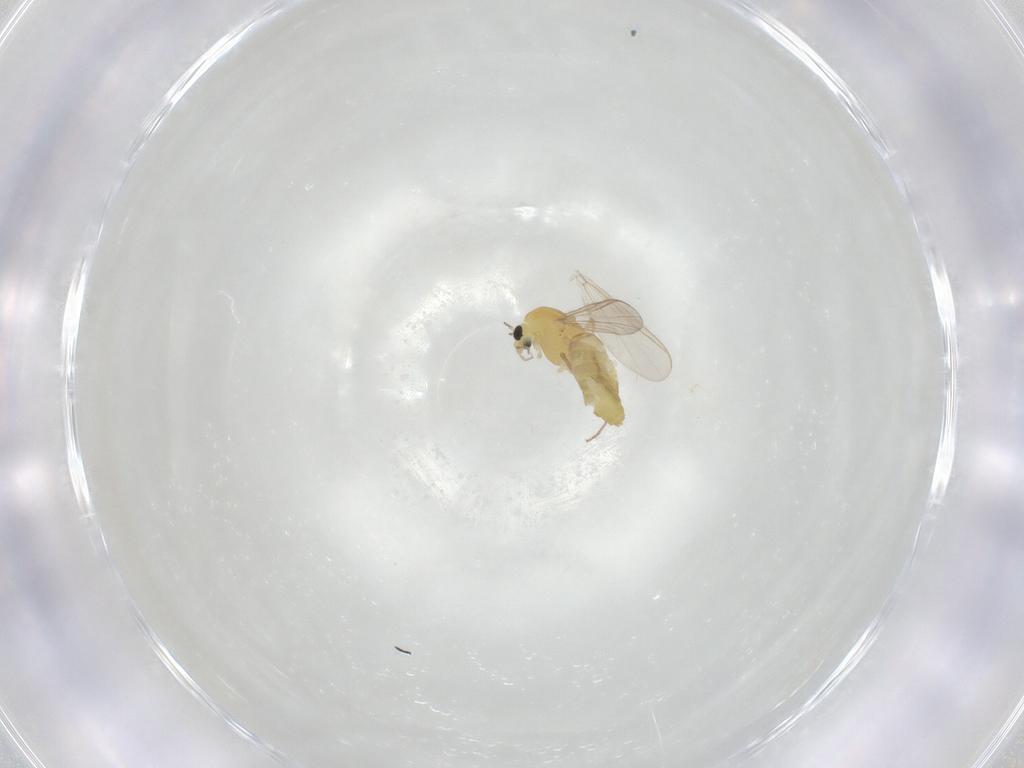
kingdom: Animalia
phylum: Arthropoda
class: Insecta
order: Diptera
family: Chironomidae
